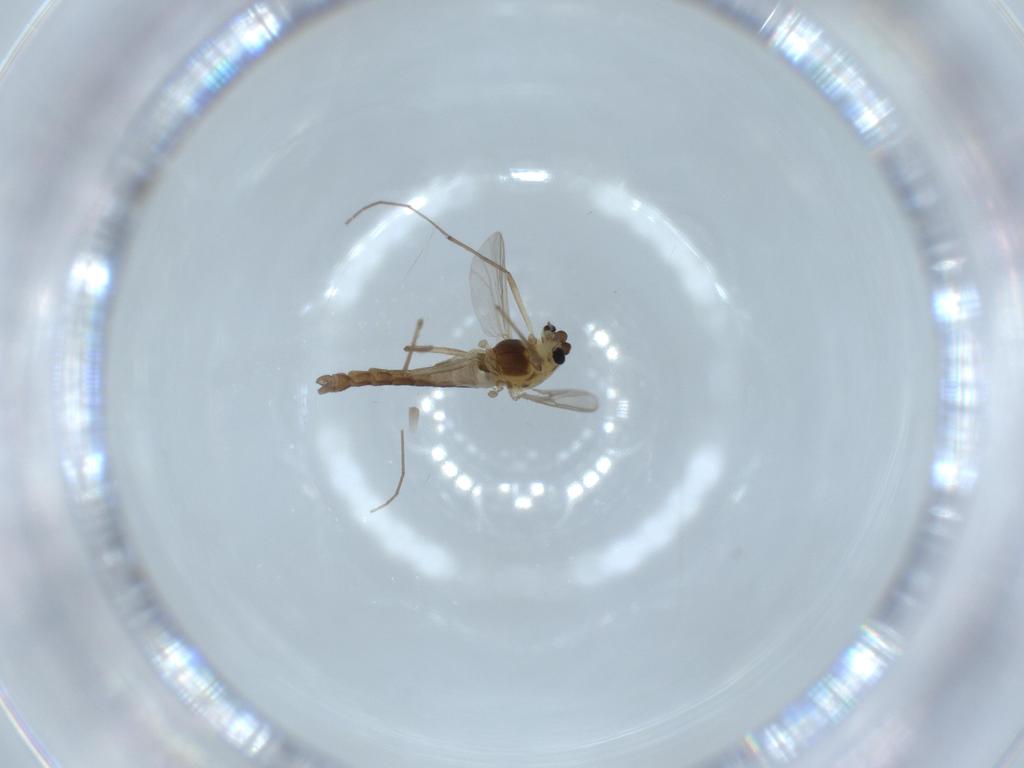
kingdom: Animalia
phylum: Arthropoda
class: Insecta
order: Diptera
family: Chironomidae
